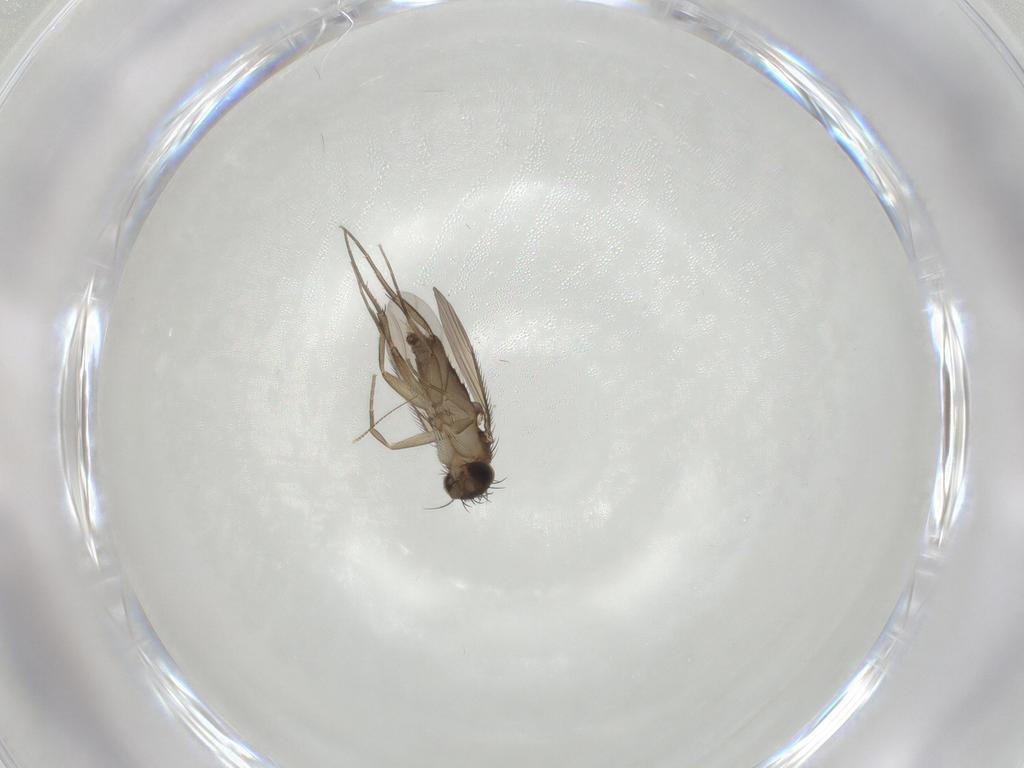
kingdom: Animalia
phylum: Arthropoda
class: Insecta
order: Diptera
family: Phoridae
